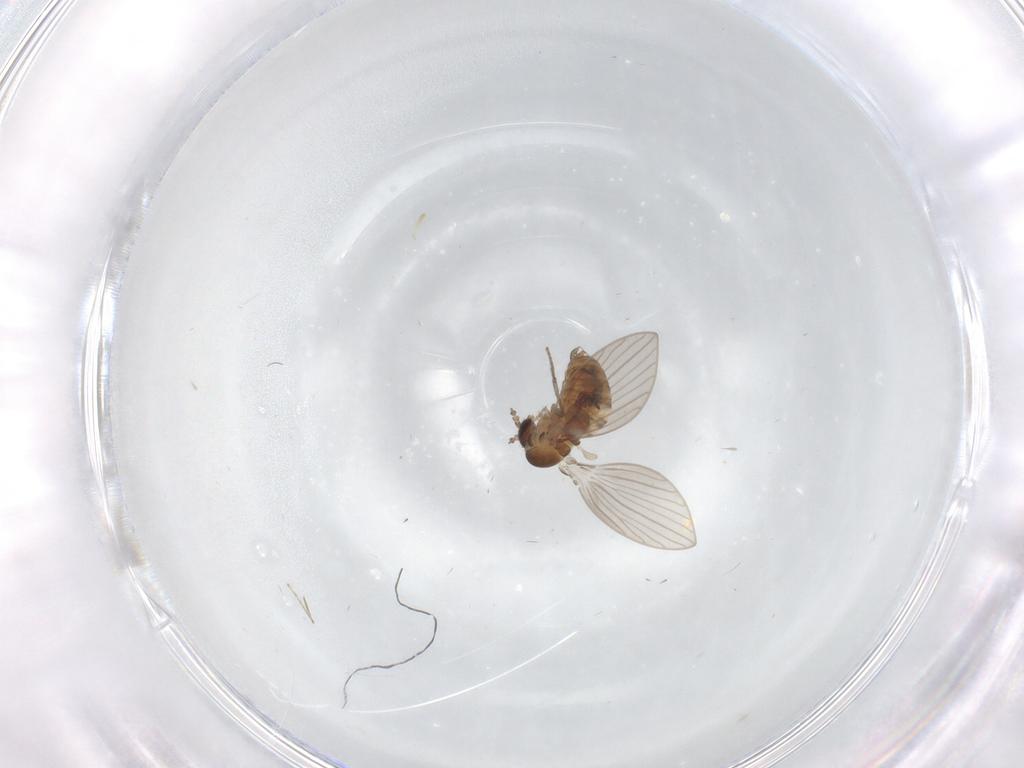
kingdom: Animalia
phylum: Arthropoda
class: Insecta
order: Diptera
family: Psychodidae
